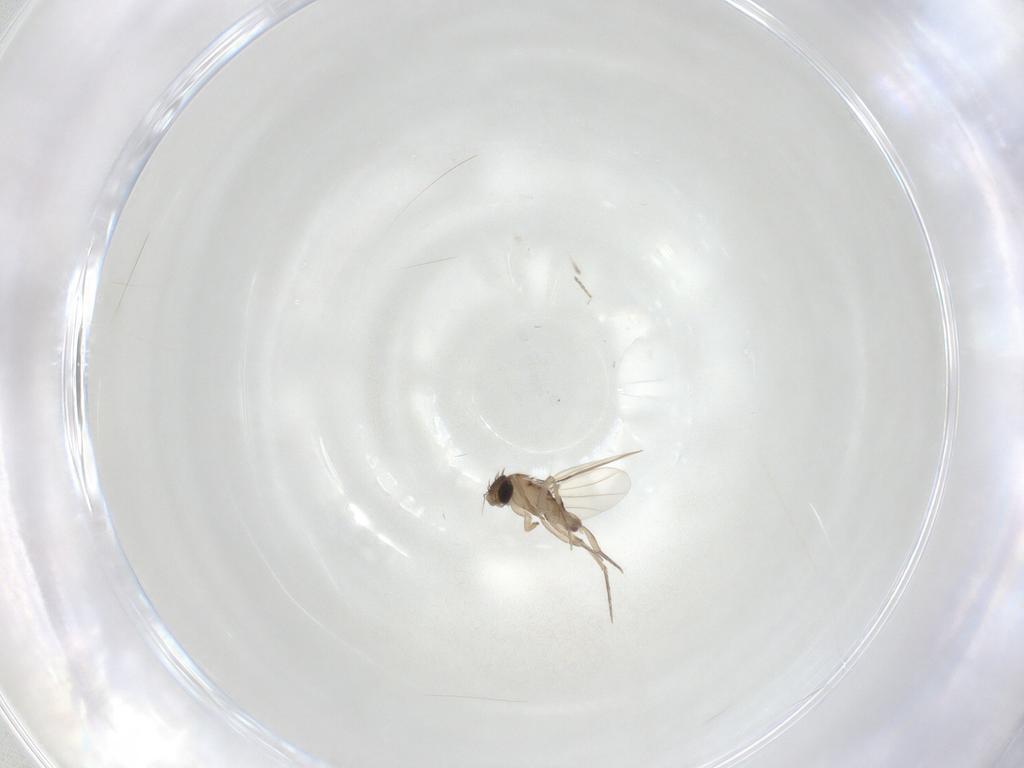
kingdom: Animalia
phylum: Arthropoda
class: Insecta
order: Diptera
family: Phoridae
